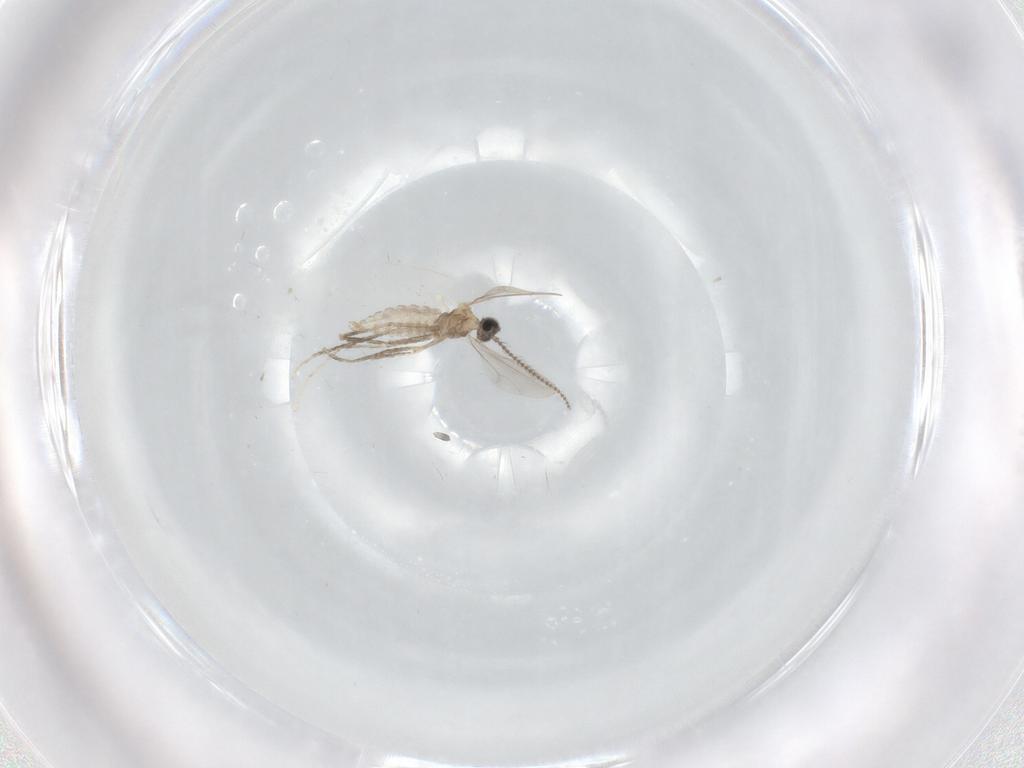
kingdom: Animalia
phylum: Arthropoda
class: Insecta
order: Diptera
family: Cecidomyiidae
